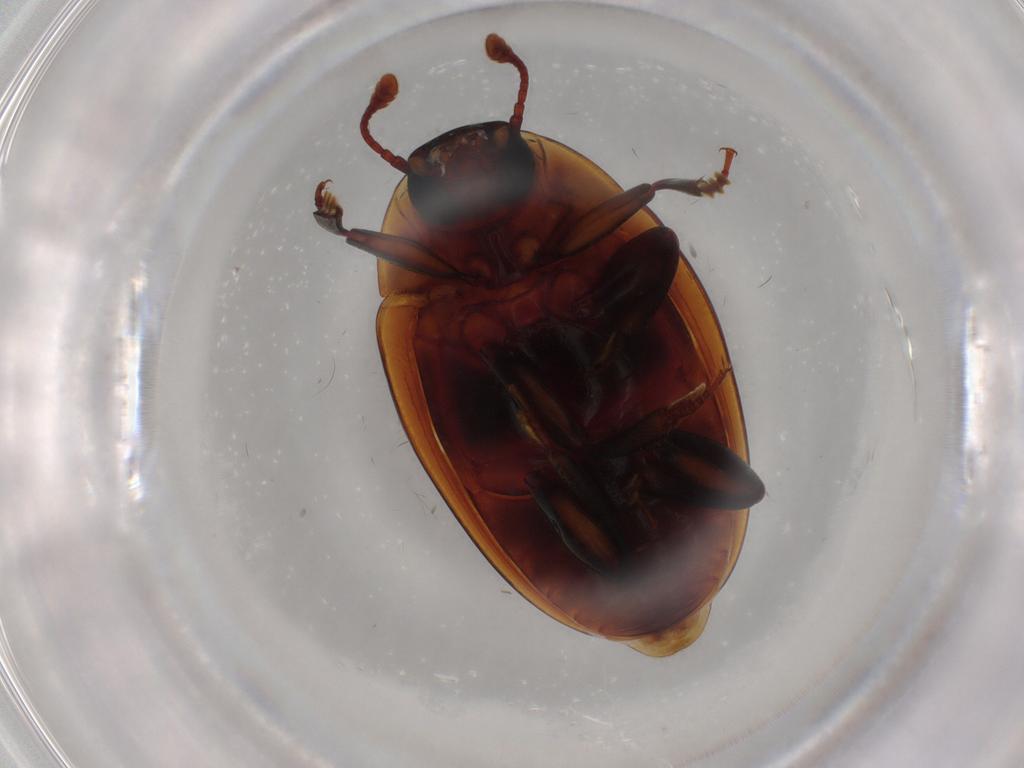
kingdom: Animalia
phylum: Arthropoda
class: Insecta
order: Coleoptera
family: Zopheridae
